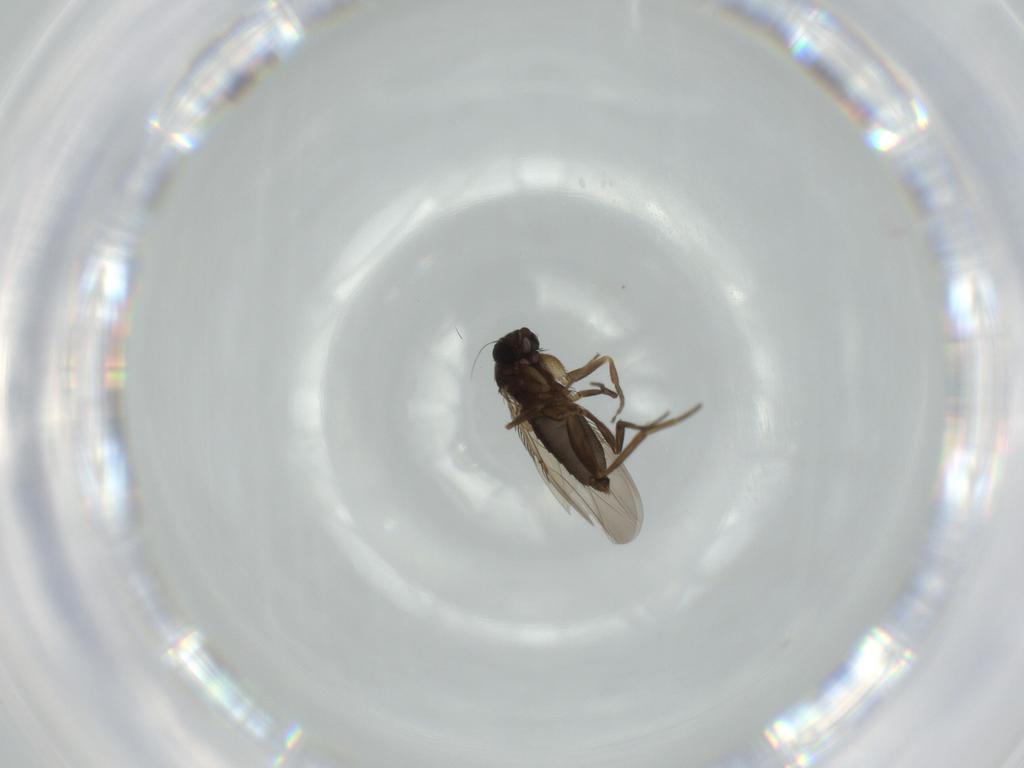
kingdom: Animalia
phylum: Arthropoda
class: Insecta
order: Diptera
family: Phoridae
